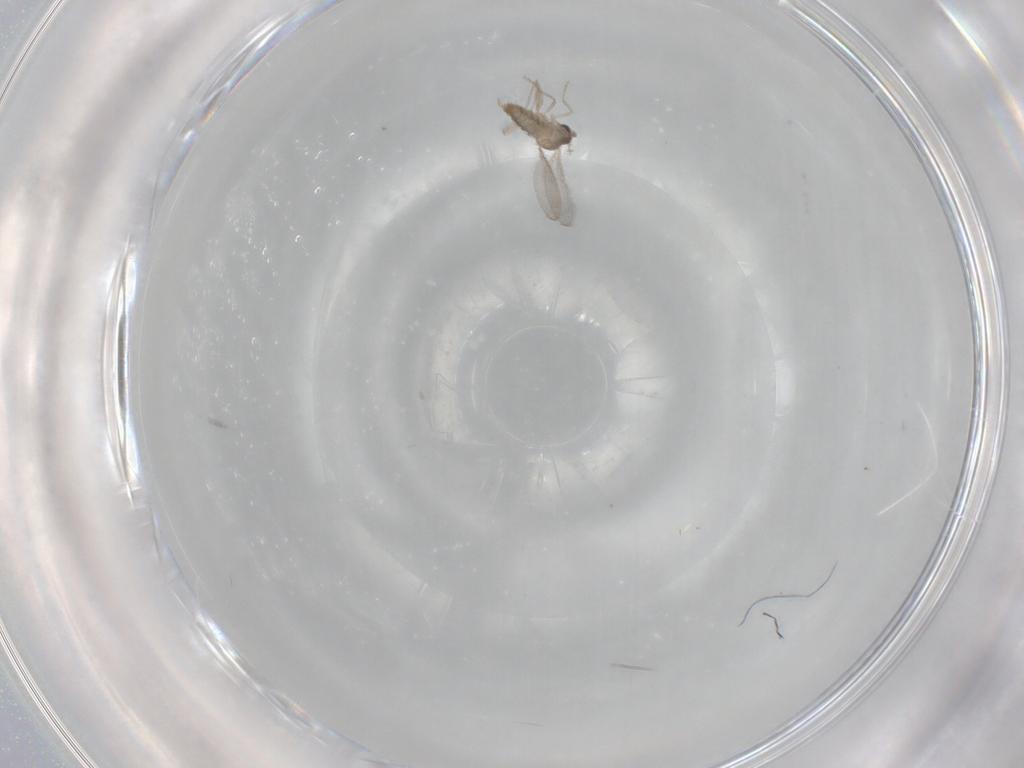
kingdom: Animalia
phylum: Arthropoda
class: Insecta
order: Diptera
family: Cecidomyiidae
